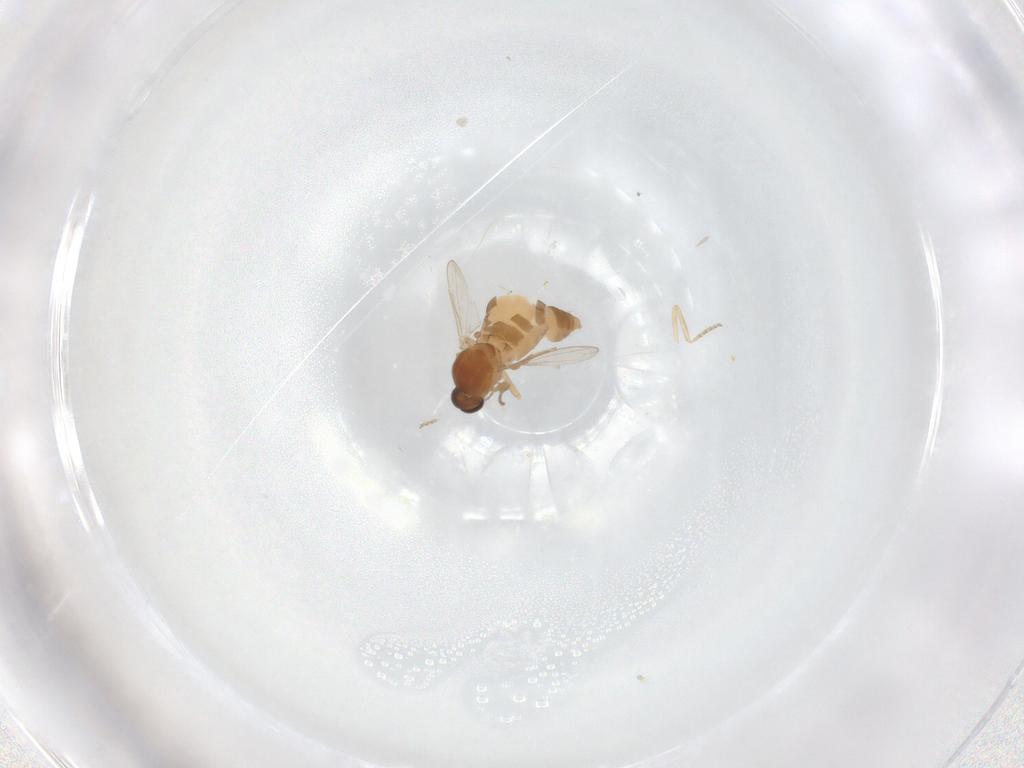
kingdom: Animalia
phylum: Arthropoda
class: Insecta
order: Diptera
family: Ceratopogonidae
